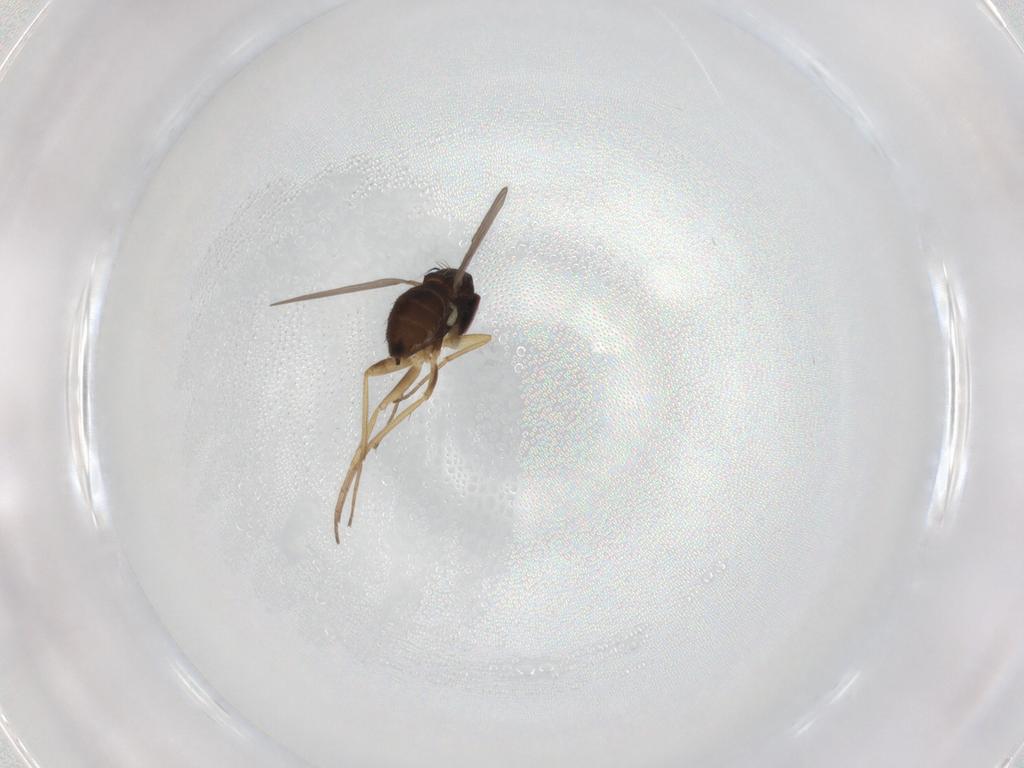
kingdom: Animalia
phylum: Arthropoda
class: Insecta
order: Diptera
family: Dolichopodidae
